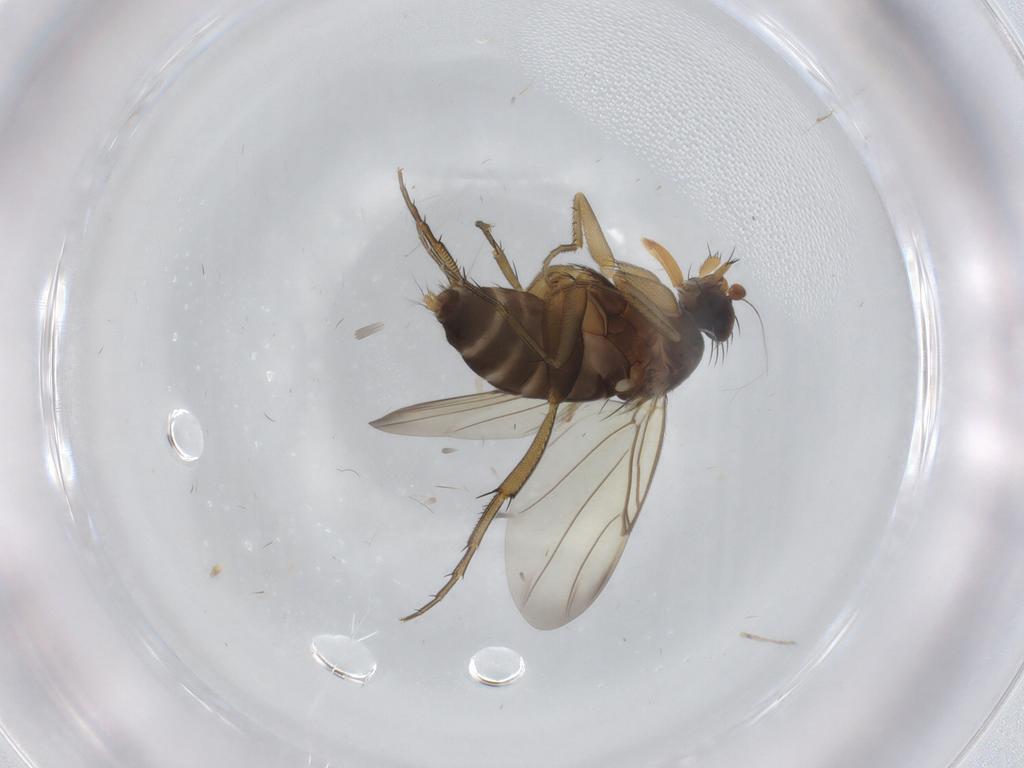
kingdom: Animalia
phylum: Arthropoda
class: Insecta
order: Diptera
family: Phoridae
